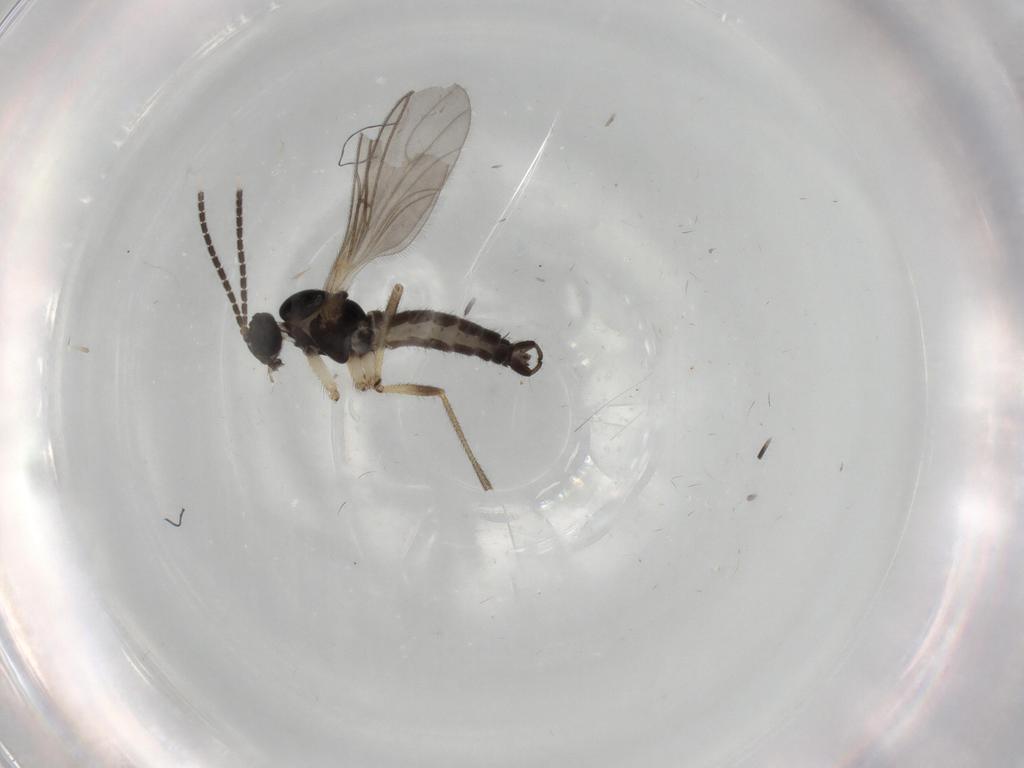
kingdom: Animalia
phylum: Arthropoda
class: Insecta
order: Diptera
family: Sciaridae
